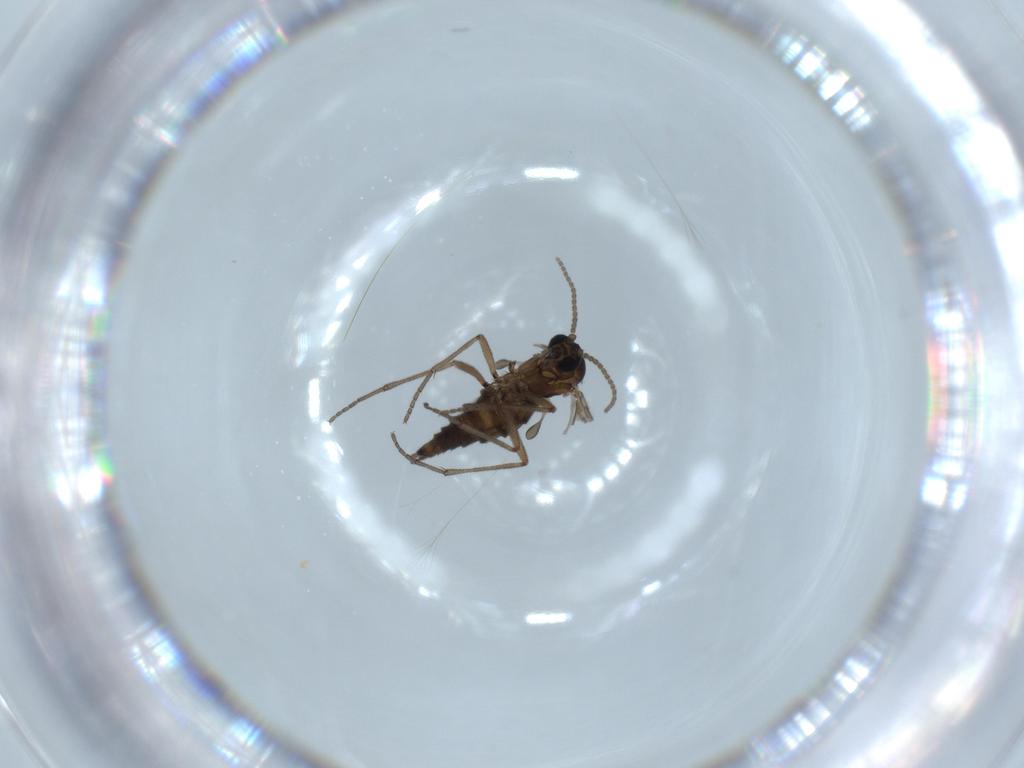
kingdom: Animalia
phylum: Arthropoda
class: Insecta
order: Diptera
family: Sciaridae
